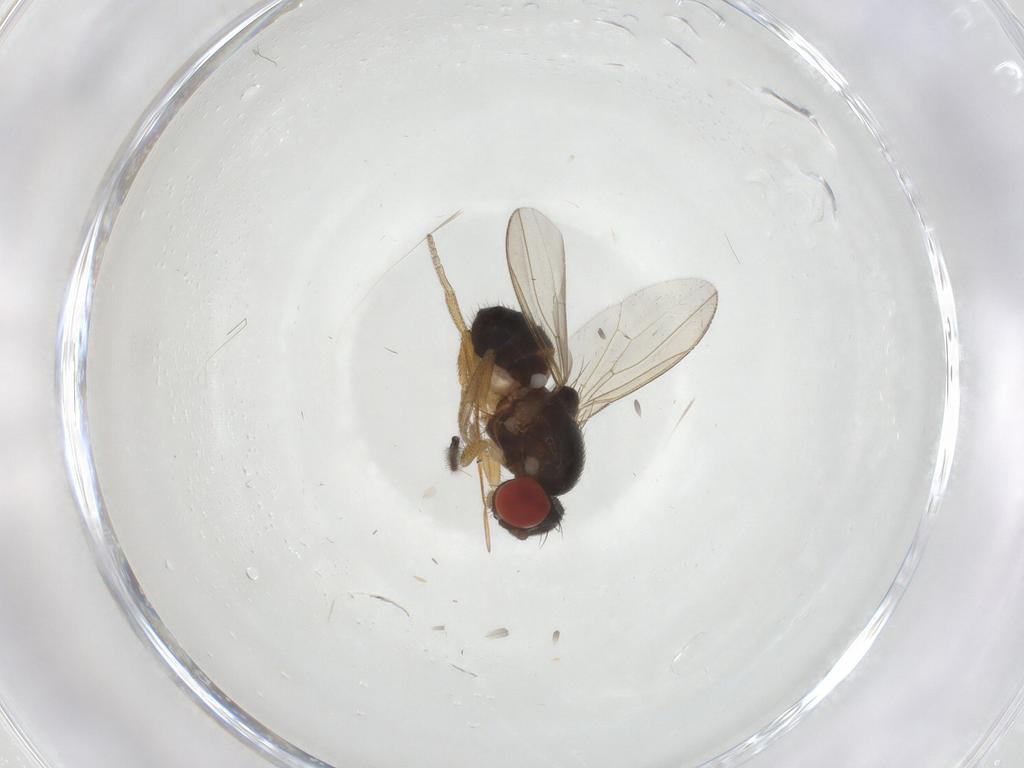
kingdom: Animalia
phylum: Arthropoda
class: Insecta
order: Diptera
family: Drosophilidae
